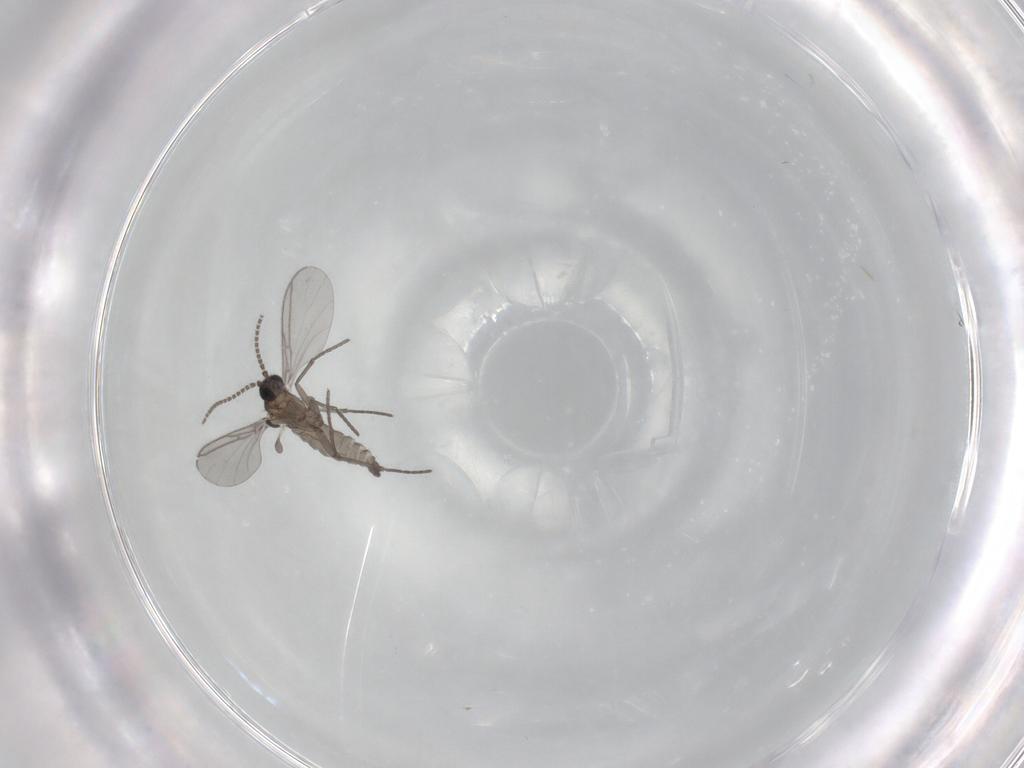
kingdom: Animalia
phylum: Arthropoda
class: Insecta
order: Diptera
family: Dolichopodidae
